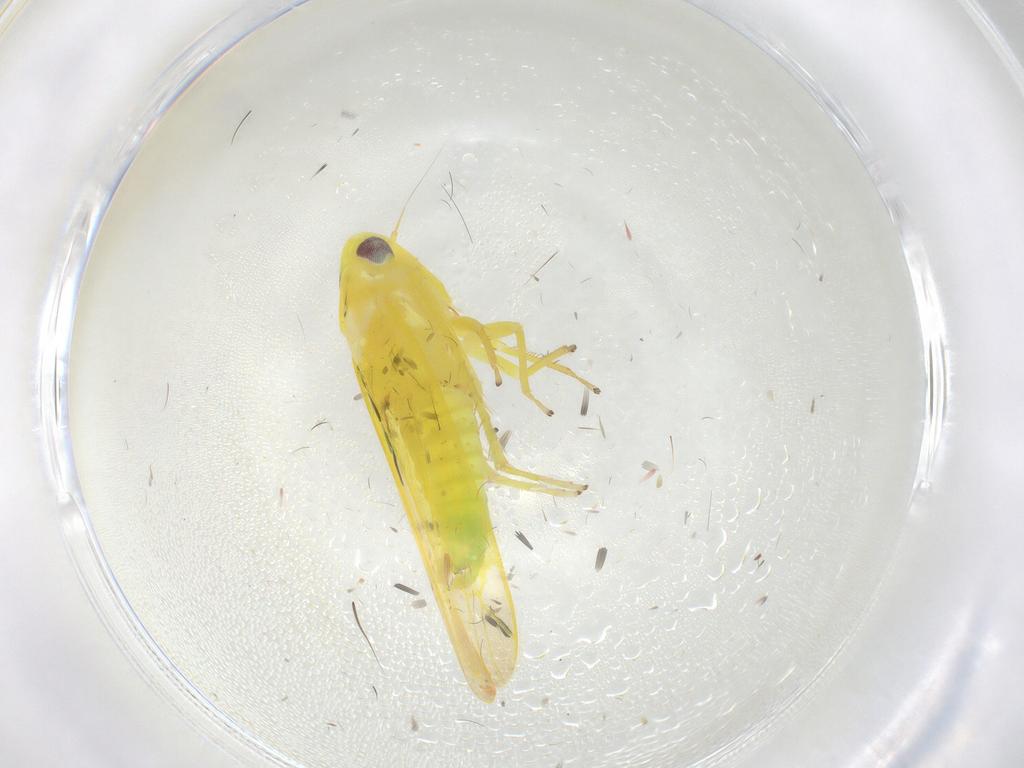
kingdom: Animalia
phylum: Arthropoda
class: Insecta
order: Hemiptera
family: Cicadellidae
